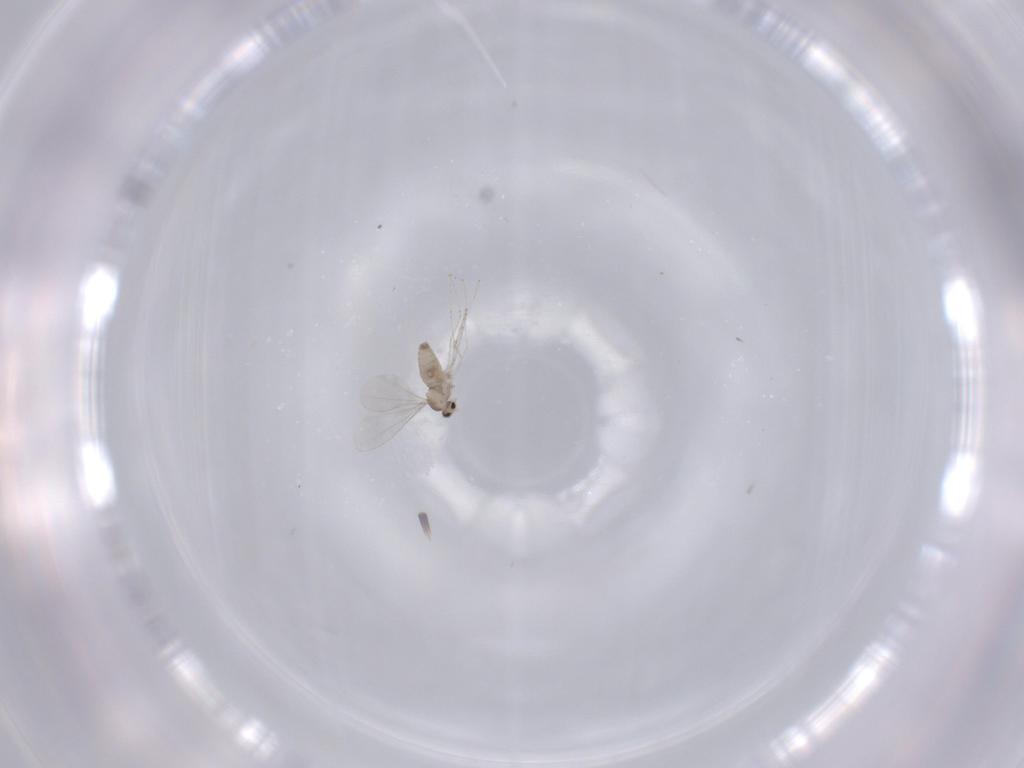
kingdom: Animalia
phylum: Arthropoda
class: Insecta
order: Diptera
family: Cecidomyiidae
